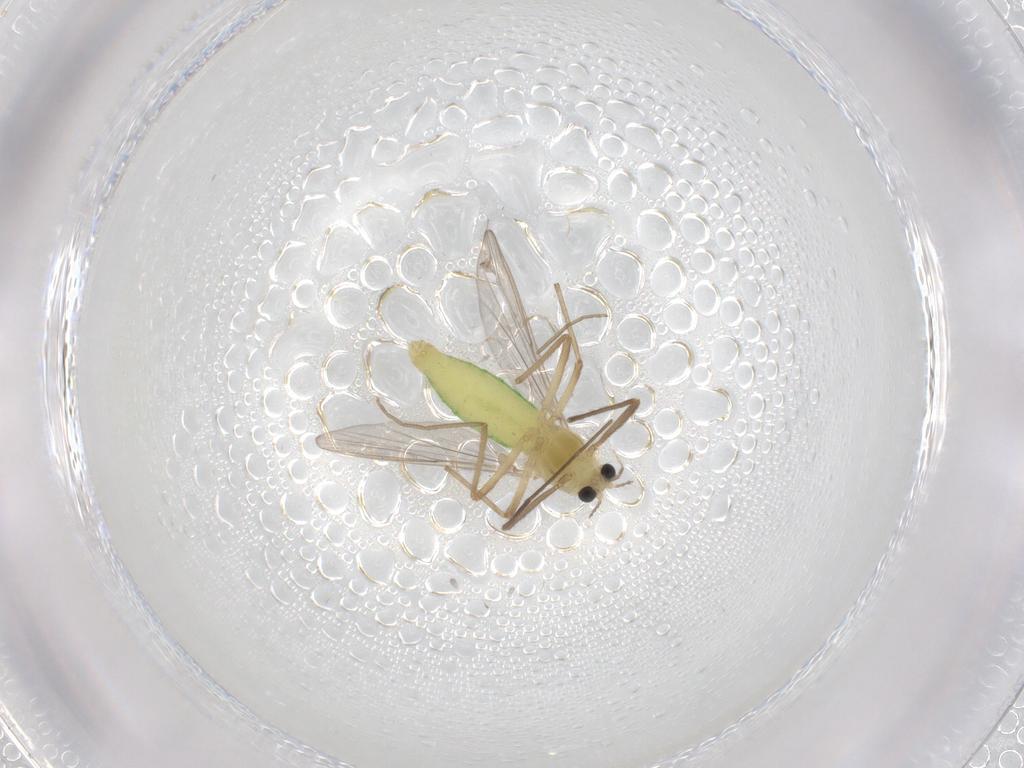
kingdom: Animalia
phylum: Arthropoda
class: Insecta
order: Diptera
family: Chironomidae
